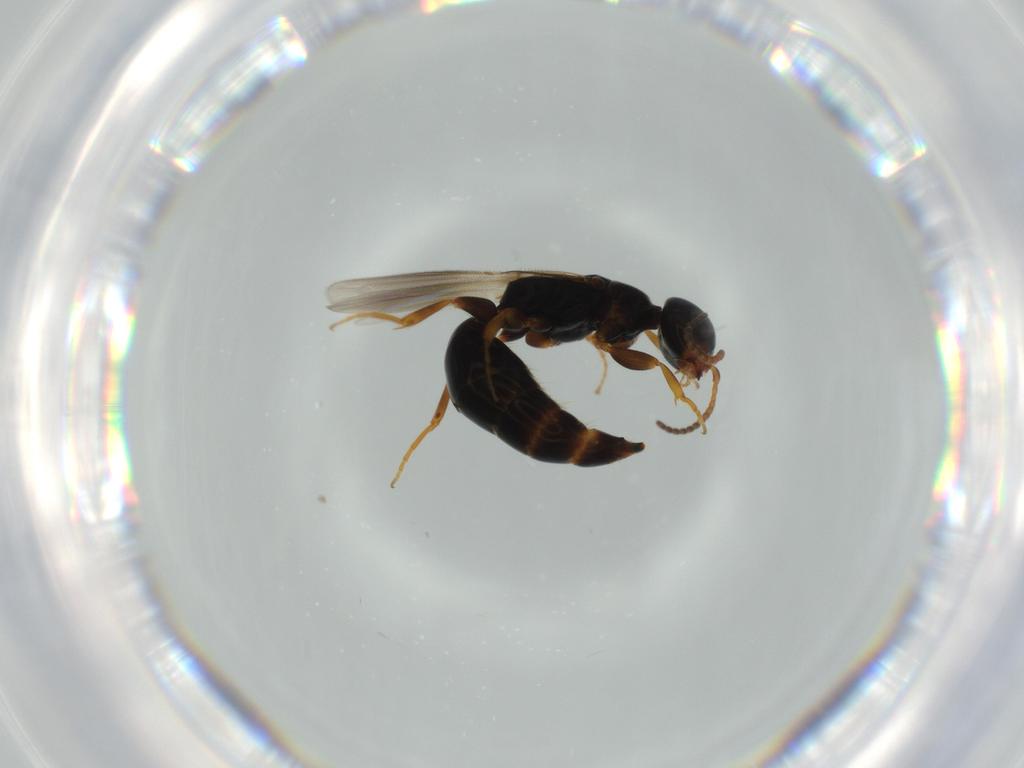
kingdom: Animalia
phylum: Arthropoda
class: Insecta
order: Hymenoptera
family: Bethylidae
